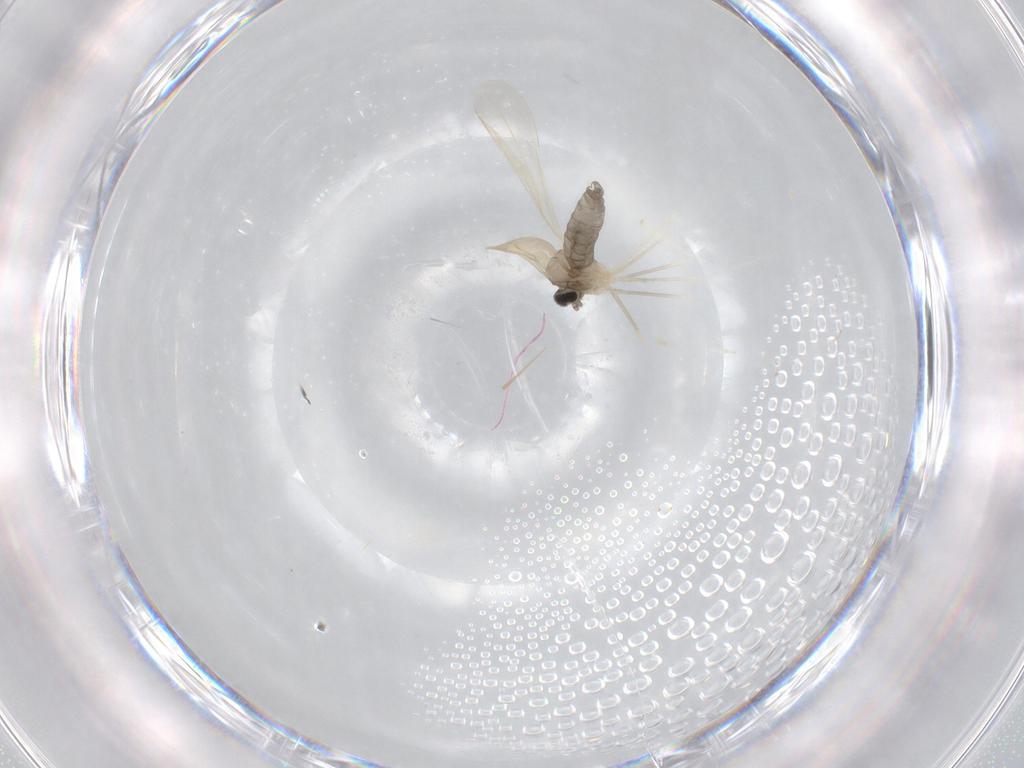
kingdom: Animalia
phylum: Arthropoda
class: Insecta
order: Diptera
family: Cecidomyiidae
